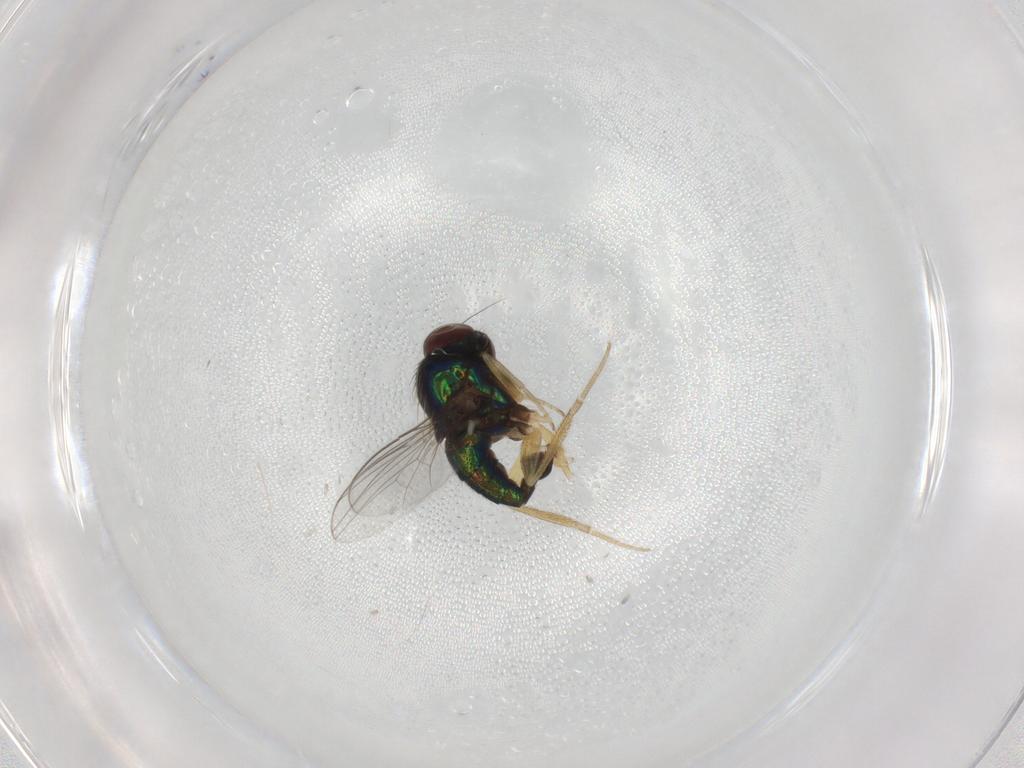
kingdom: Animalia
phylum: Arthropoda
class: Insecta
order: Diptera
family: Dolichopodidae
